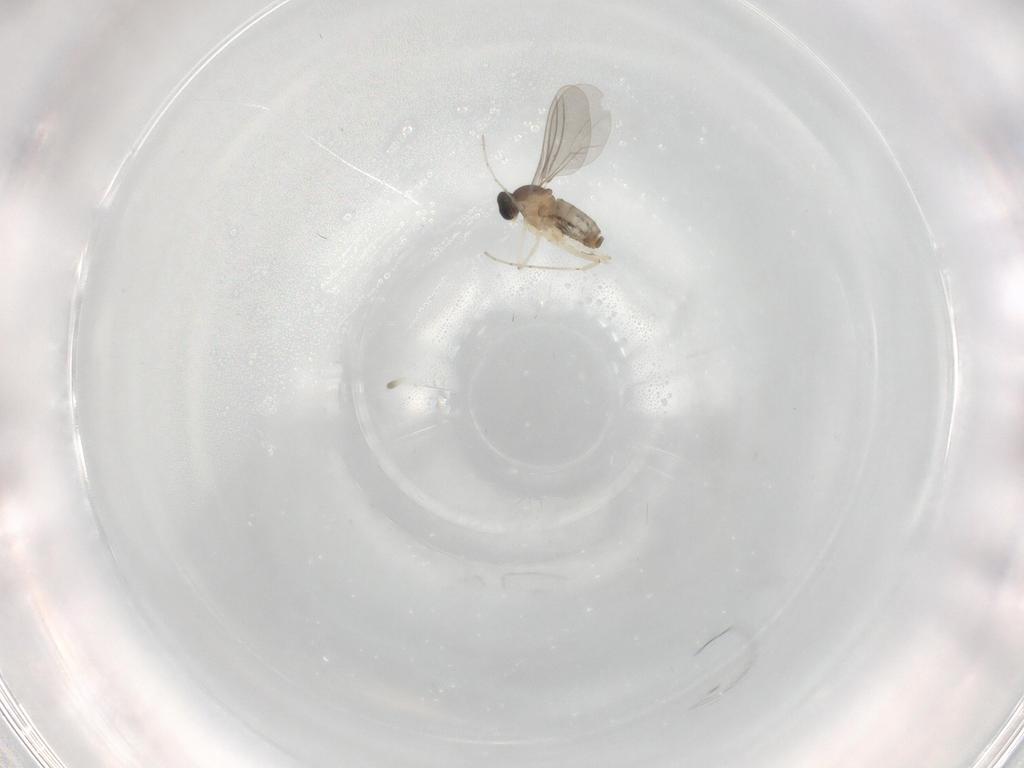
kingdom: Animalia
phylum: Arthropoda
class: Insecta
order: Diptera
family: Cecidomyiidae
